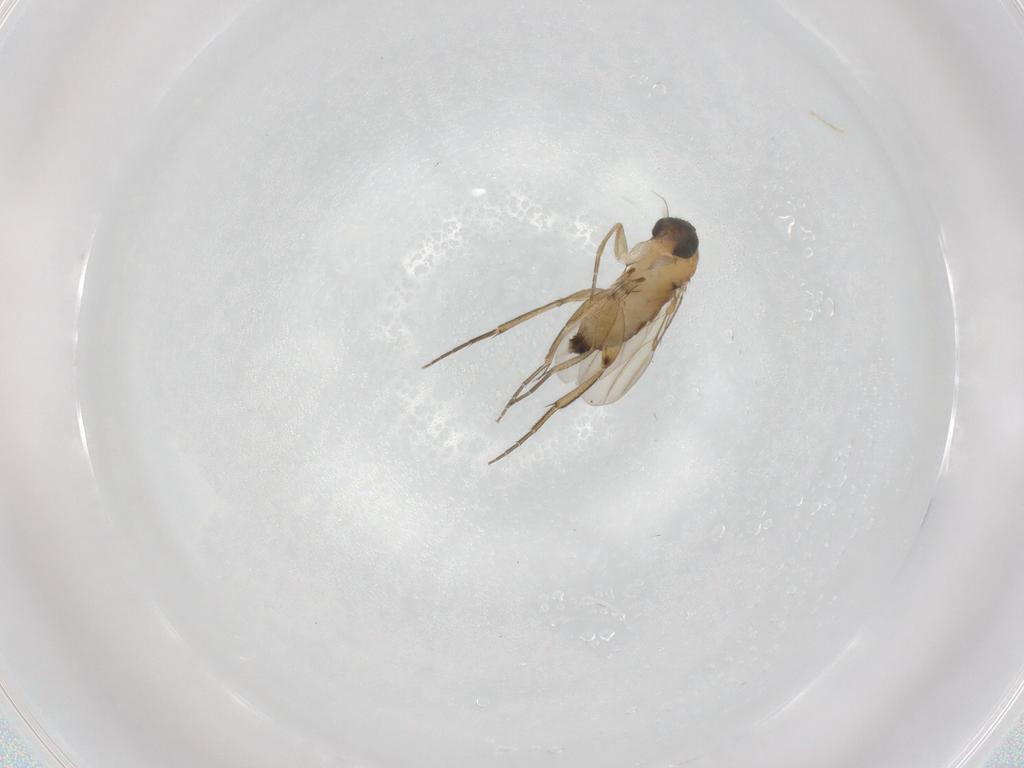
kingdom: Animalia
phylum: Arthropoda
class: Insecta
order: Diptera
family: Phoridae
